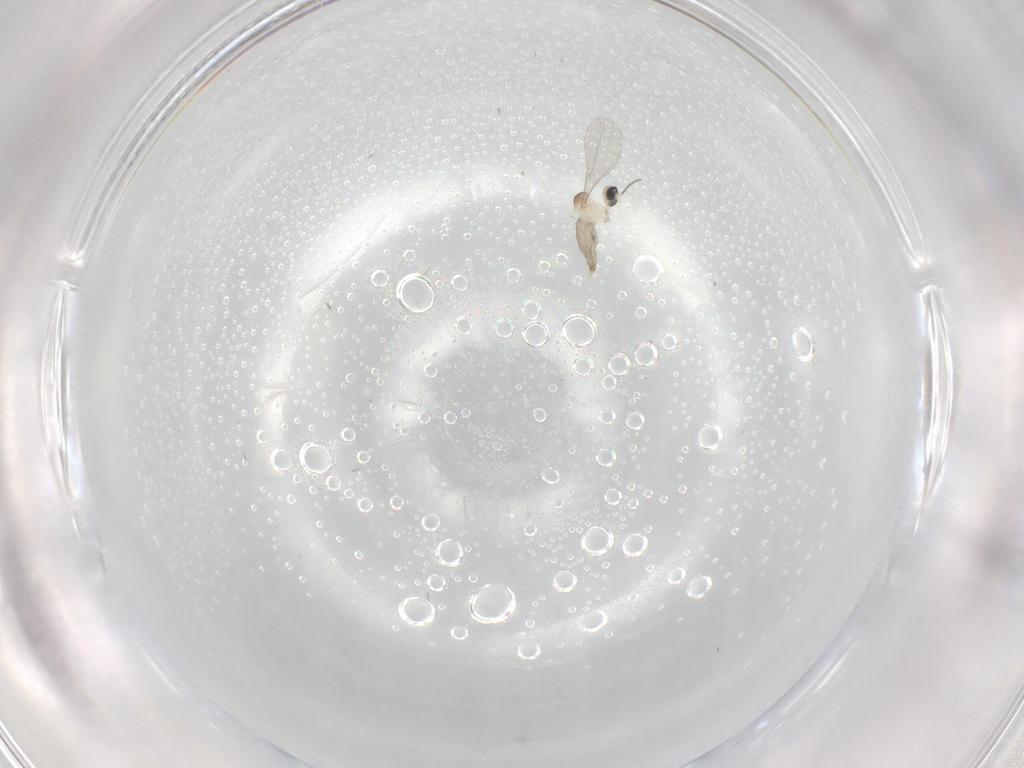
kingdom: Animalia
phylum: Arthropoda
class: Insecta
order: Diptera
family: Cecidomyiidae
